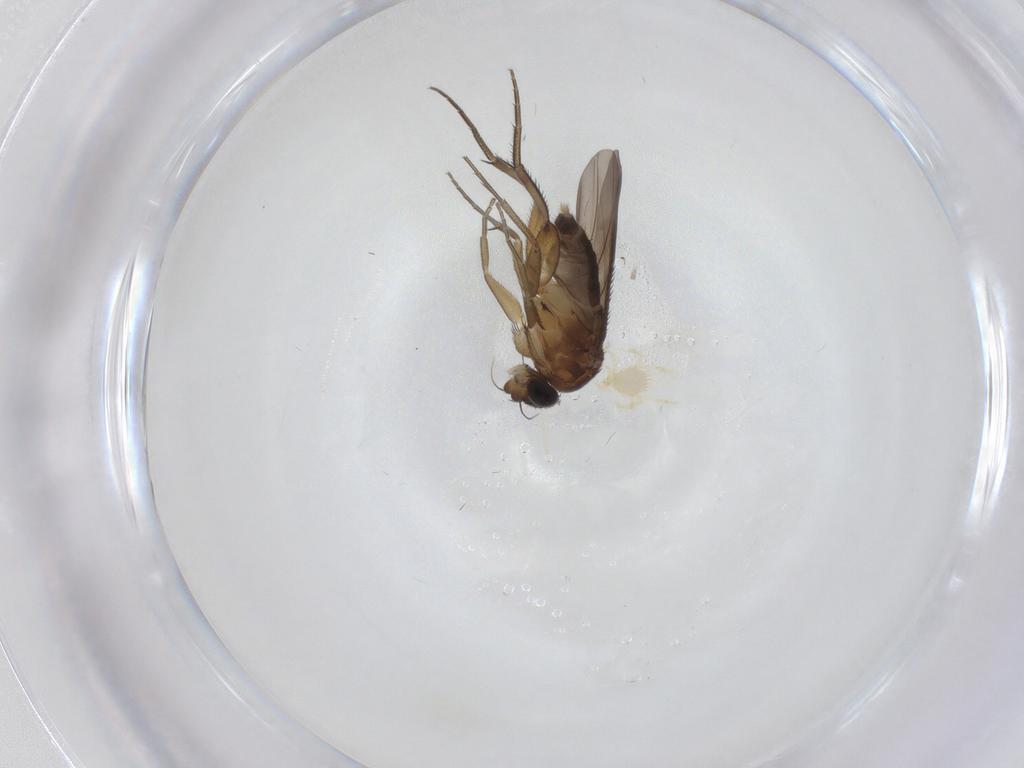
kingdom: Animalia
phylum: Arthropoda
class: Insecta
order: Diptera
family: Phoridae
